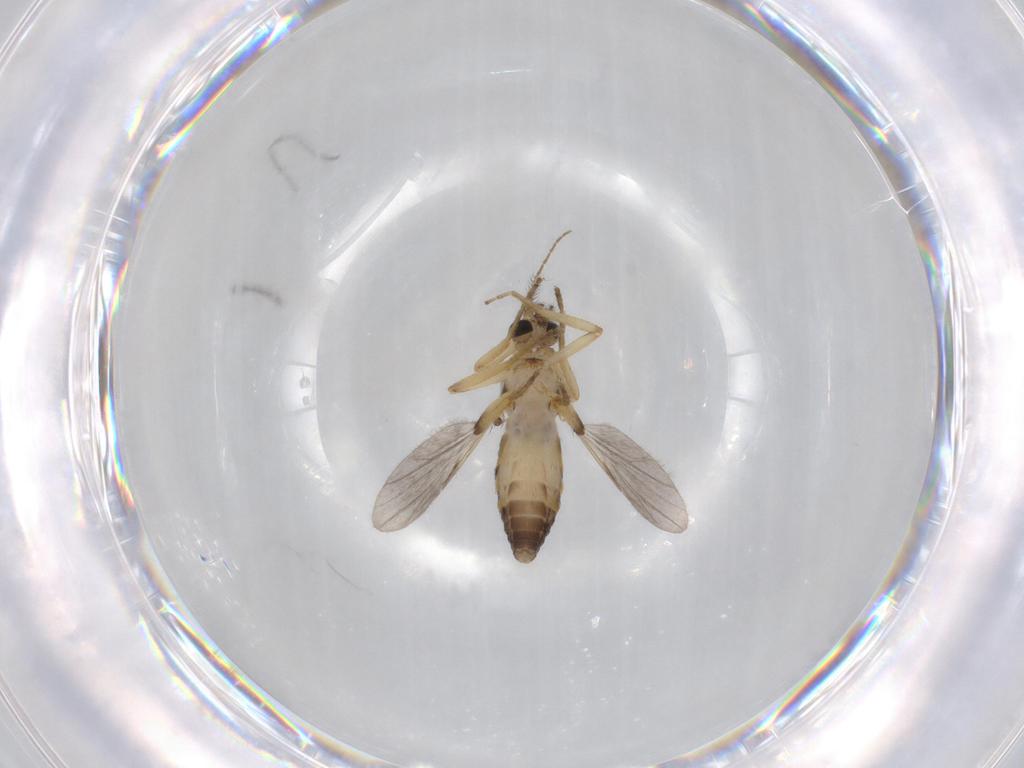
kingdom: Animalia
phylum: Arthropoda
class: Insecta
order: Diptera
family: Ceratopogonidae
